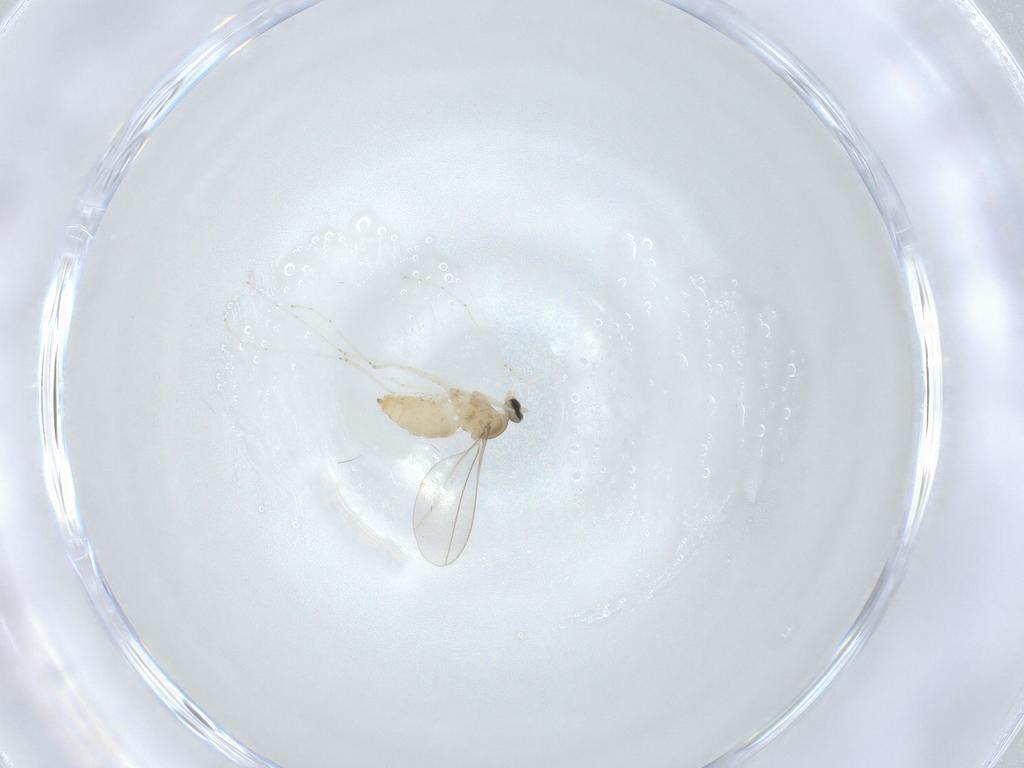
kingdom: Animalia
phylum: Arthropoda
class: Insecta
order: Diptera
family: Cecidomyiidae
